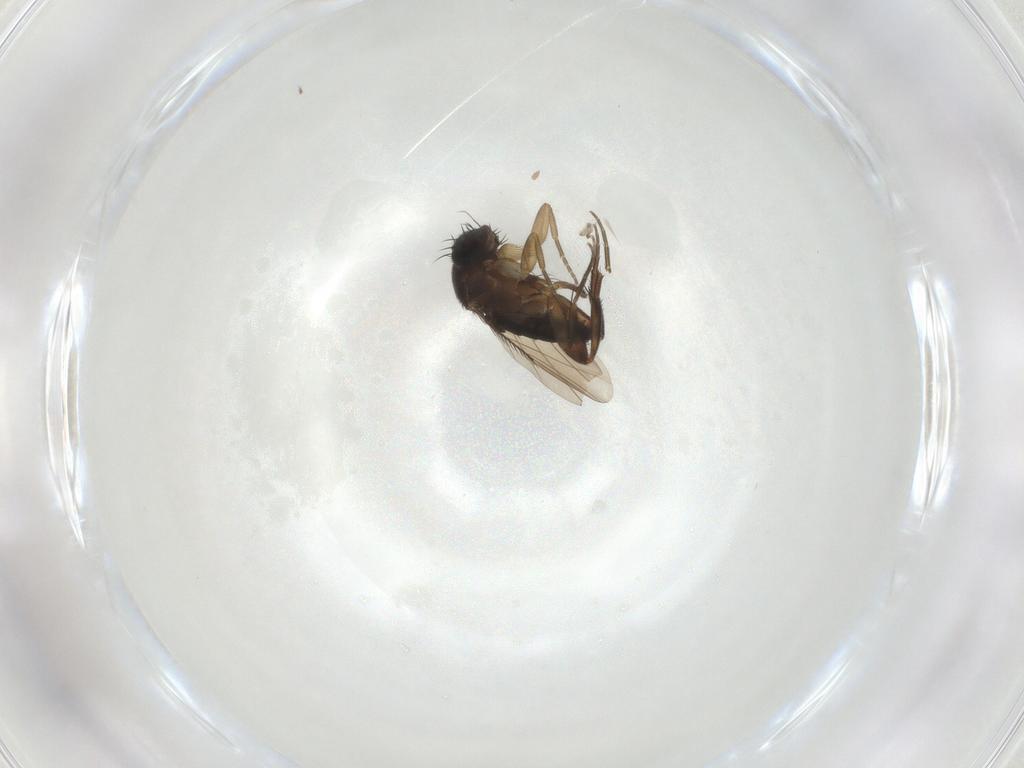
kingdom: Animalia
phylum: Arthropoda
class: Insecta
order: Diptera
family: Phoridae
